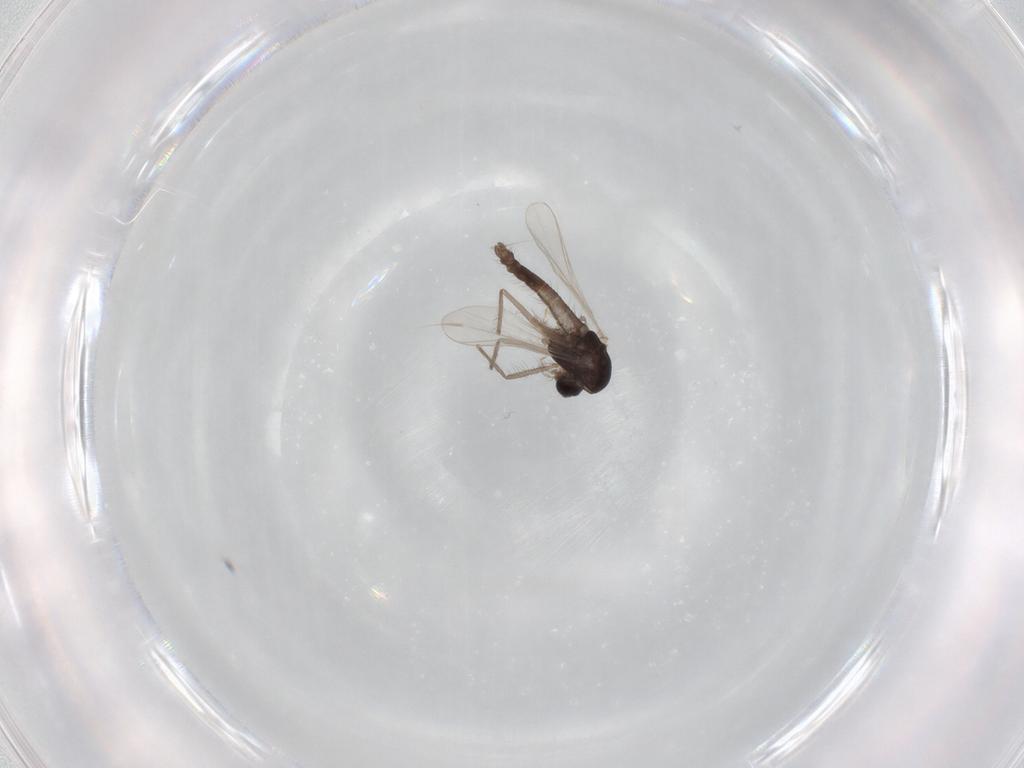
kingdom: Animalia
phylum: Arthropoda
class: Insecta
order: Diptera
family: Chironomidae
